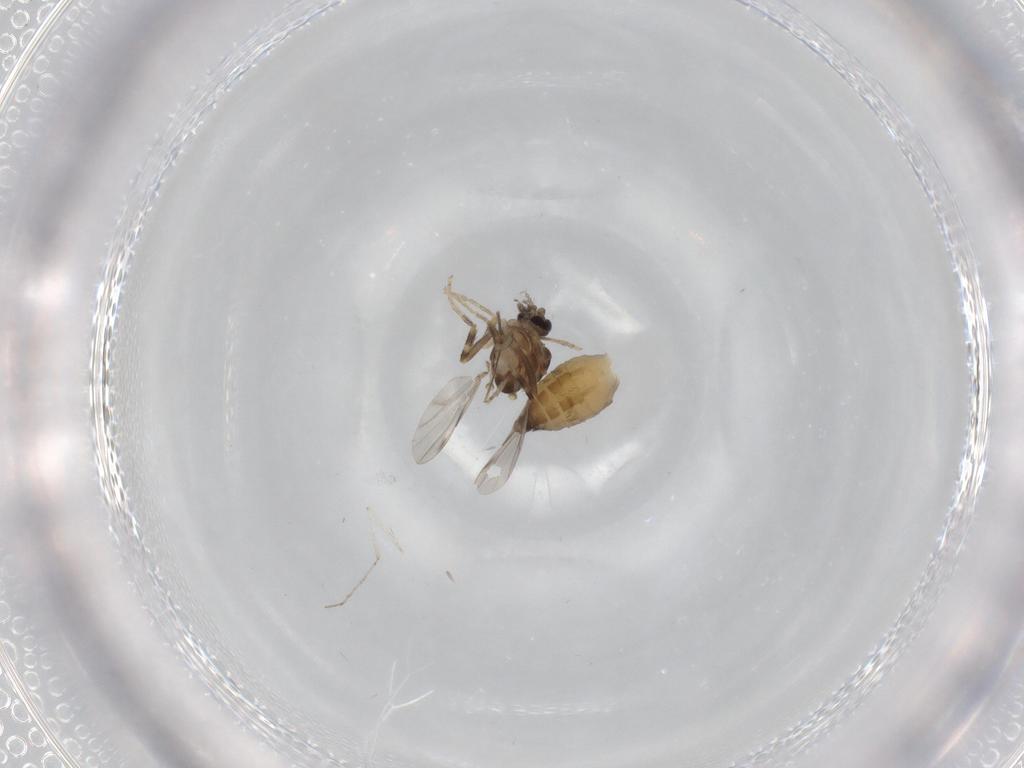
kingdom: Animalia
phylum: Arthropoda
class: Insecta
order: Diptera
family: Ceratopogonidae
